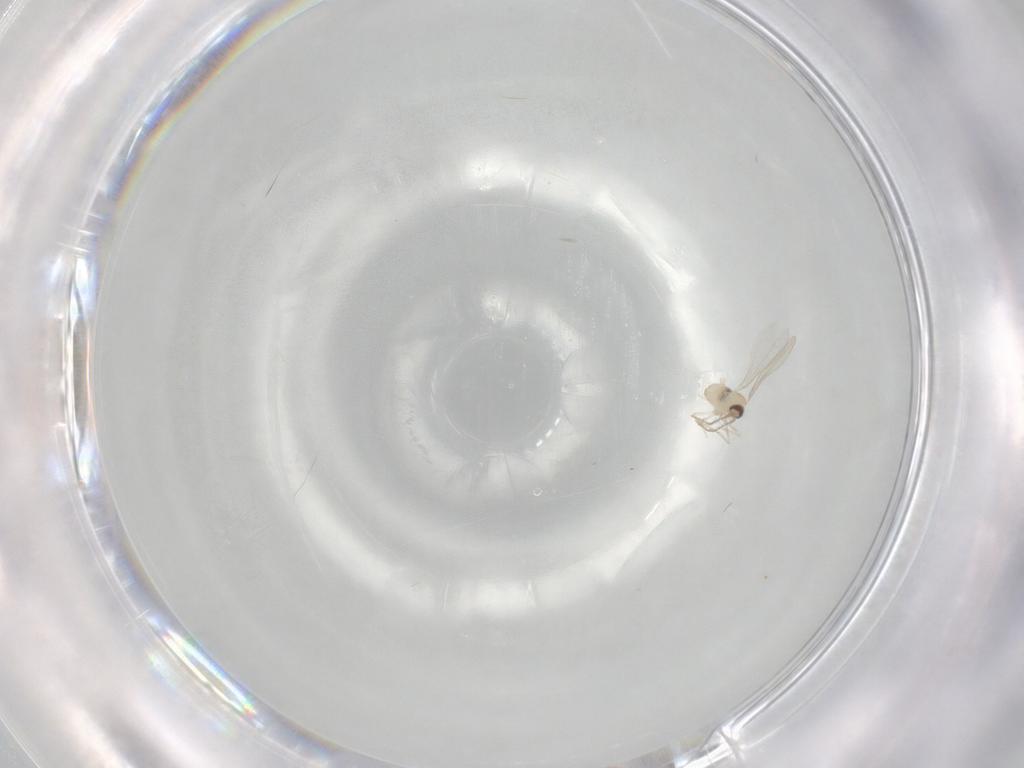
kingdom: Animalia
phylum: Arthropoda
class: Insecta
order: Diptera
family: Cecidomyiidae
